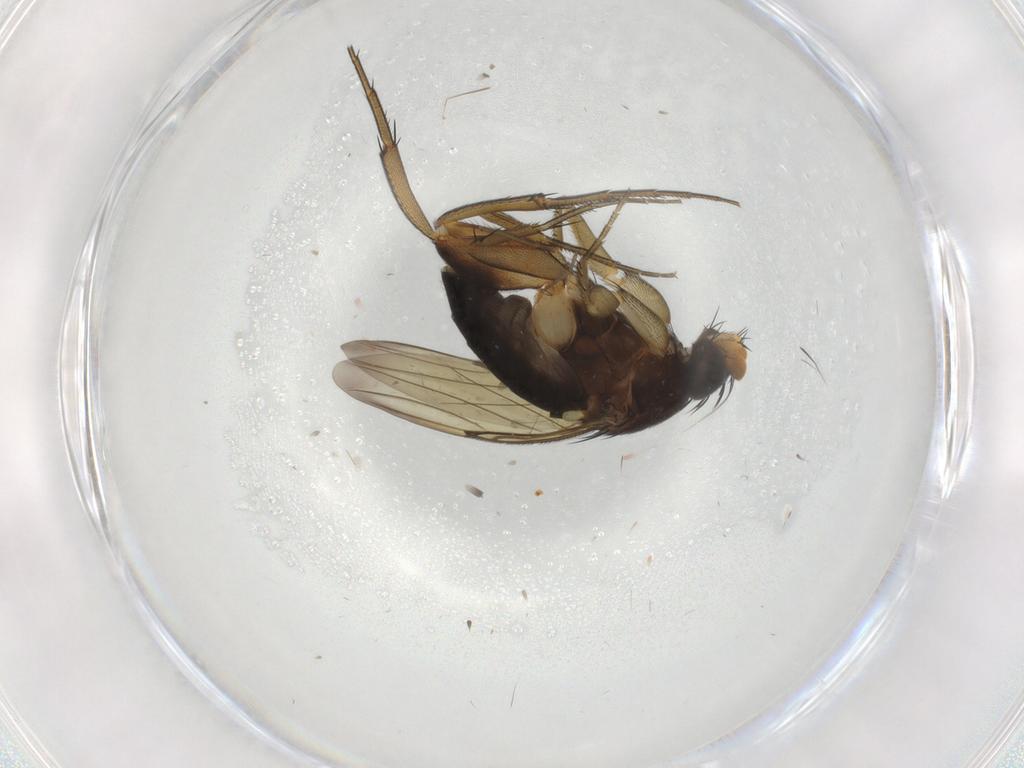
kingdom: Animalia
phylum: Arthropoda
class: Insecta
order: Diptera
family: Phoridae
